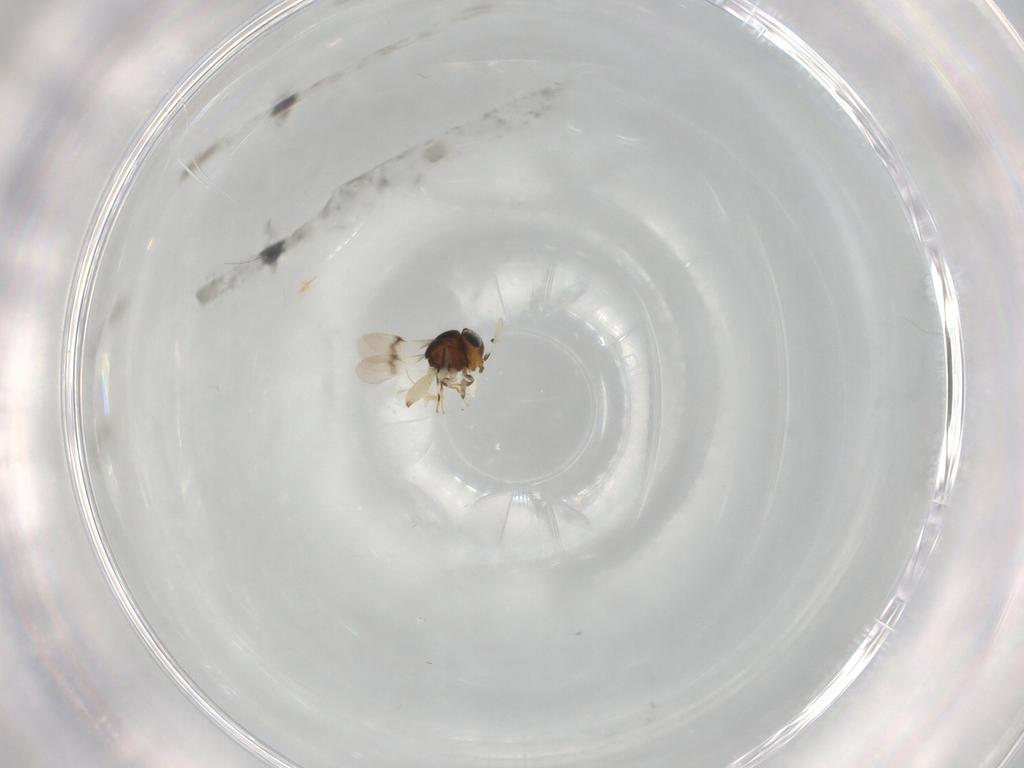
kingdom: Animalia
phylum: Arthropoda
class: Insecta
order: Hymenoptera
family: Scelionidae
